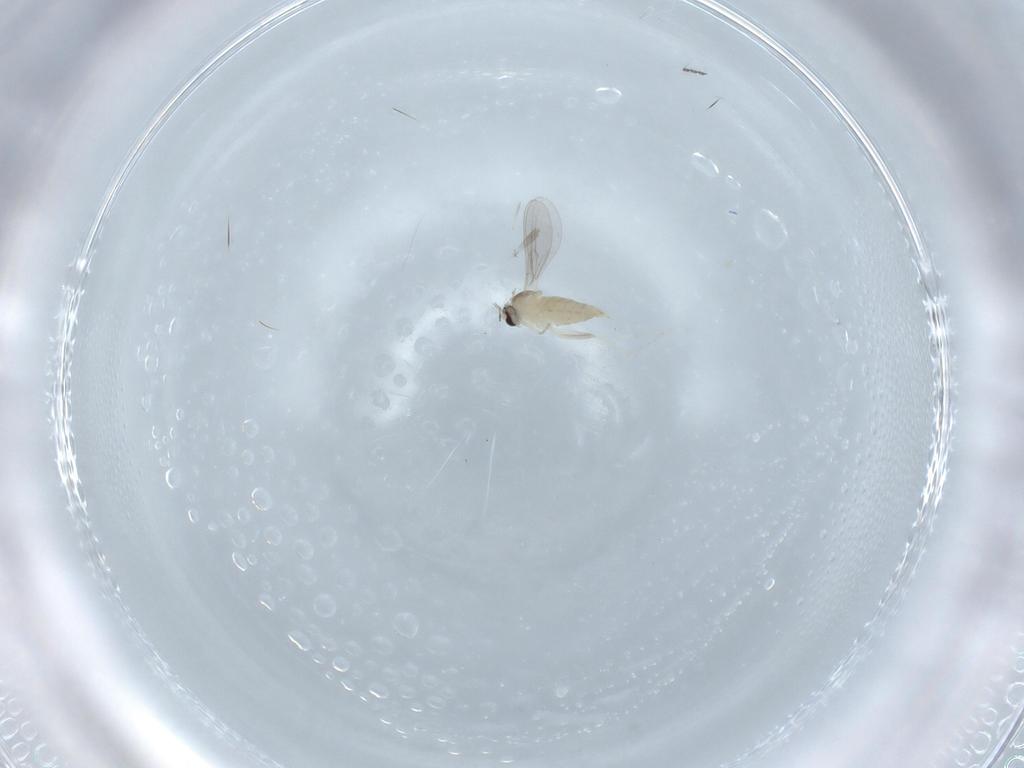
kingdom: Animalia
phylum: Arthropoda
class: Insecta
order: Diptera
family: Cecidomyiidae
